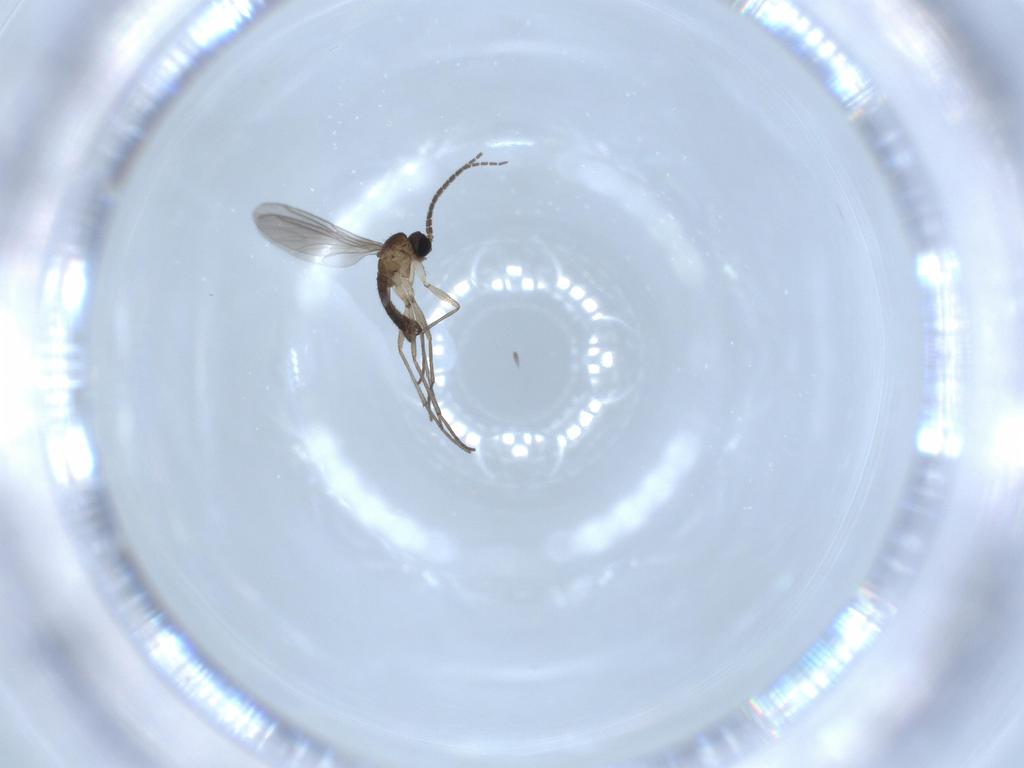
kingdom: Animalia
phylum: Arthropoda
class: Insecta
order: Diptera
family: Sciaridae
